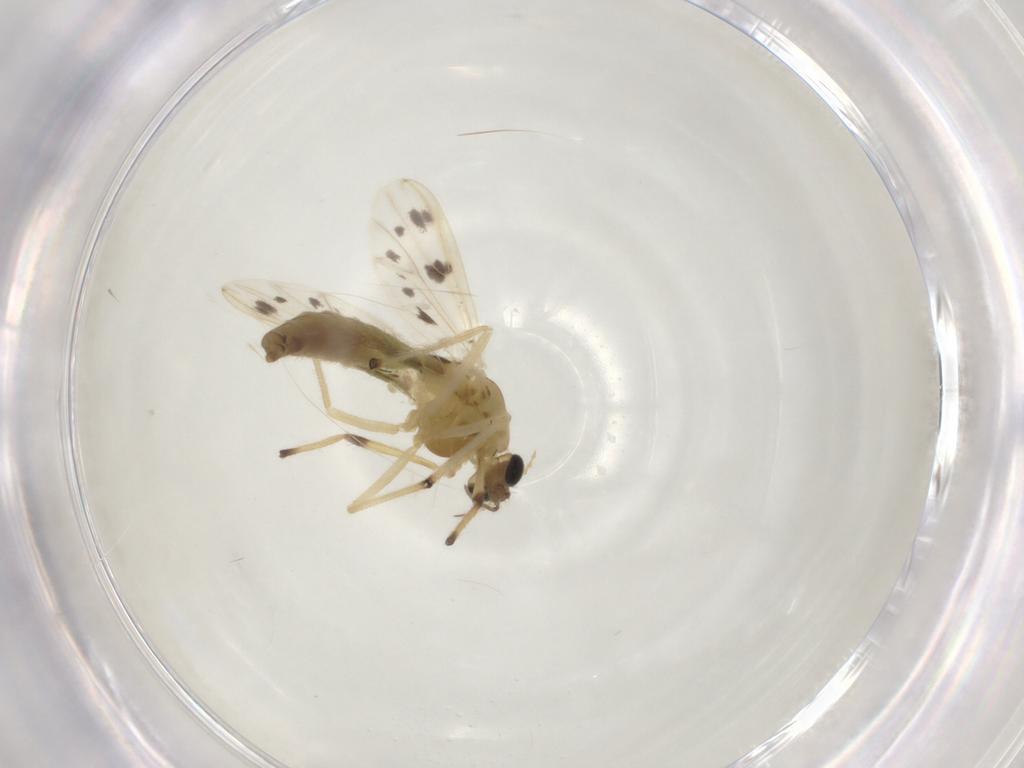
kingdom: Animalia
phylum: Arthropoda
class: Insecta
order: Diptera
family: Chironomidae
